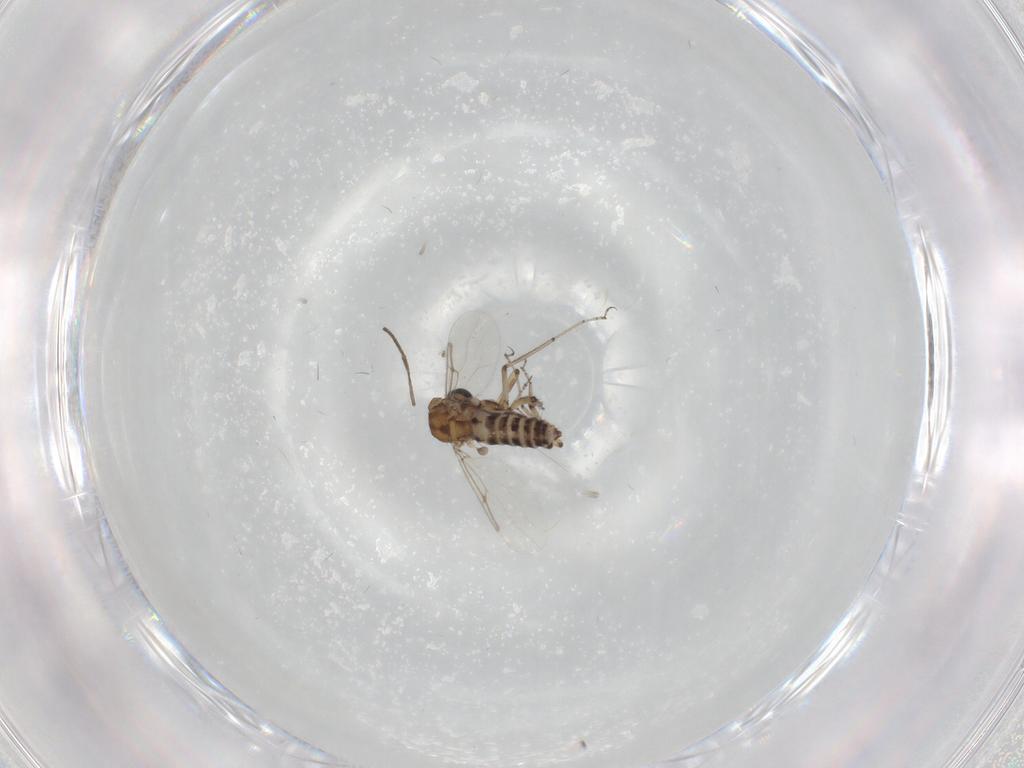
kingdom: Animalia
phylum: Arthropoda
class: Insecta
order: Diptera
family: Ceratopogonidae
